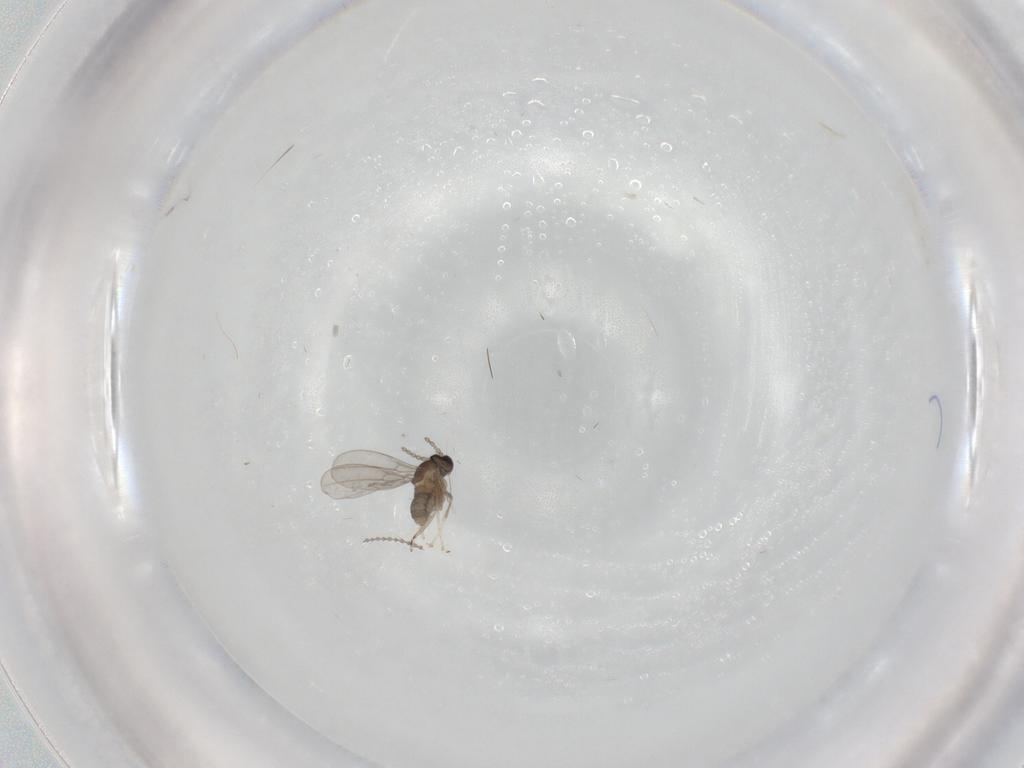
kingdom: Animalia
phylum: Arthropoda
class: Insecta
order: Diptera
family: Cecidomyiidae
